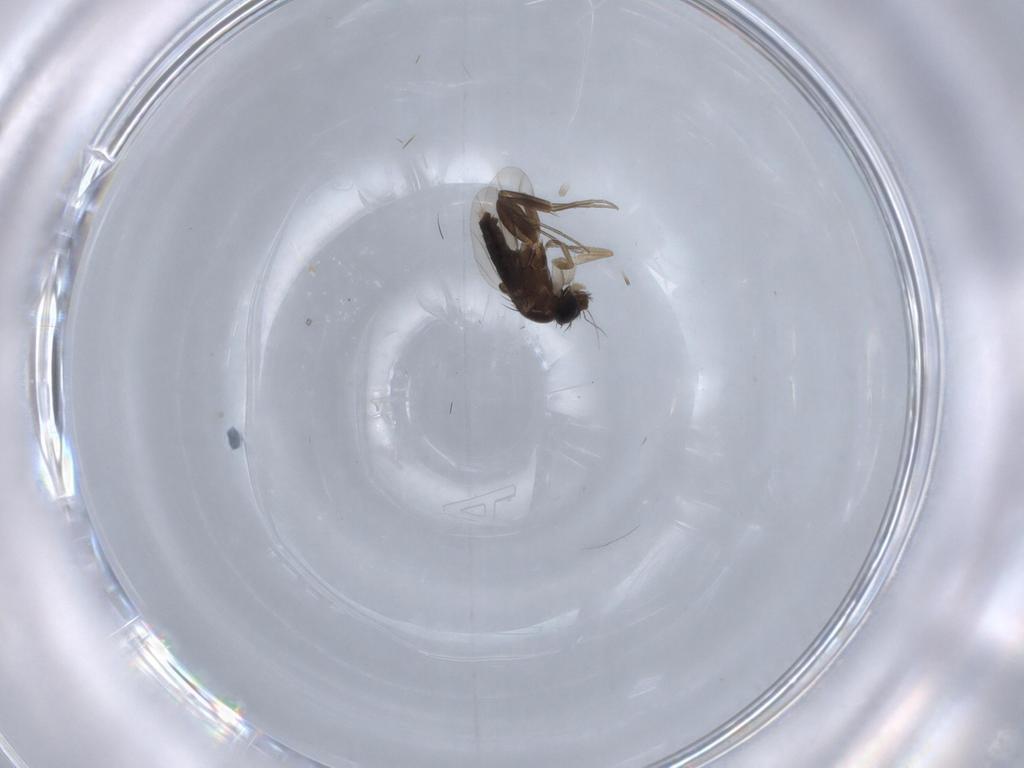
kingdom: Animalia
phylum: Arthropoda
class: Insecta
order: Diptera
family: Phoridae
